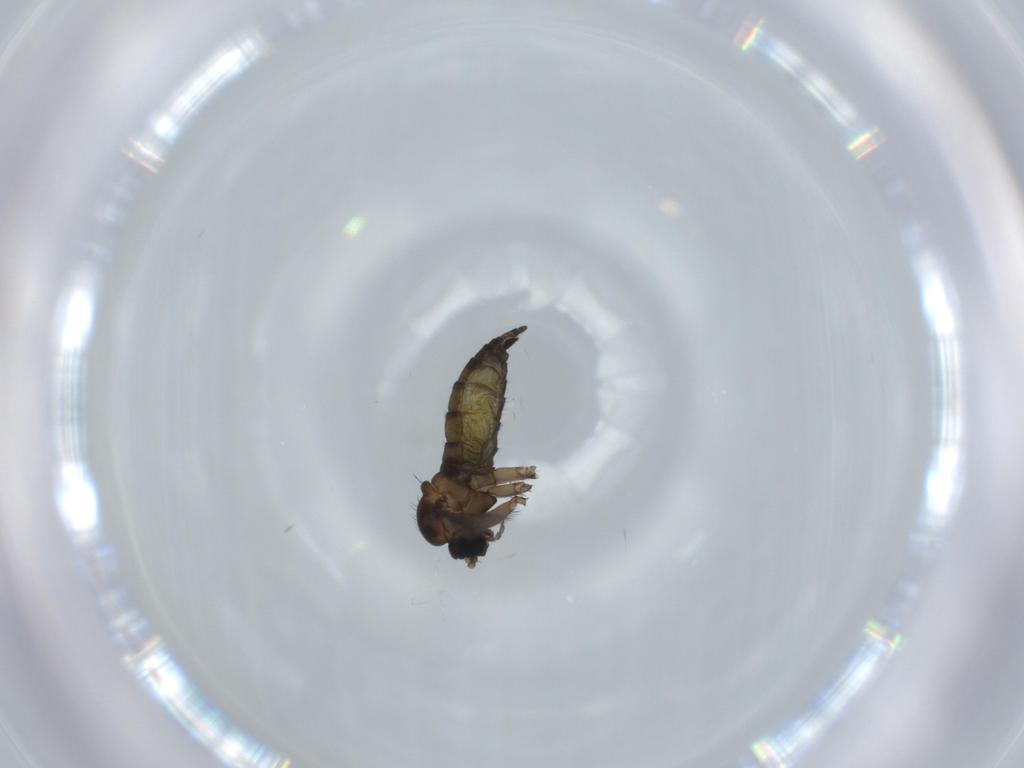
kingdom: Animalia
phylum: Arthropoda
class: Insecta
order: Diptera
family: Sciaridae
